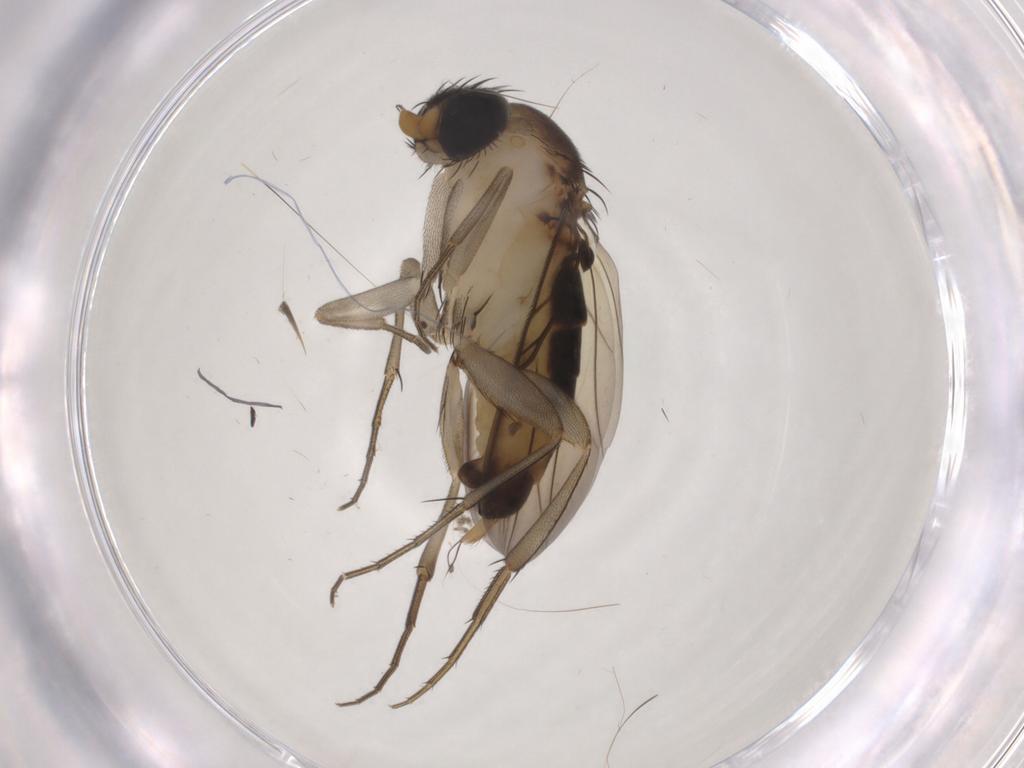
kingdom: Animalia
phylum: Arthropoda
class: Insecta
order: Diptera
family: Phoridae
